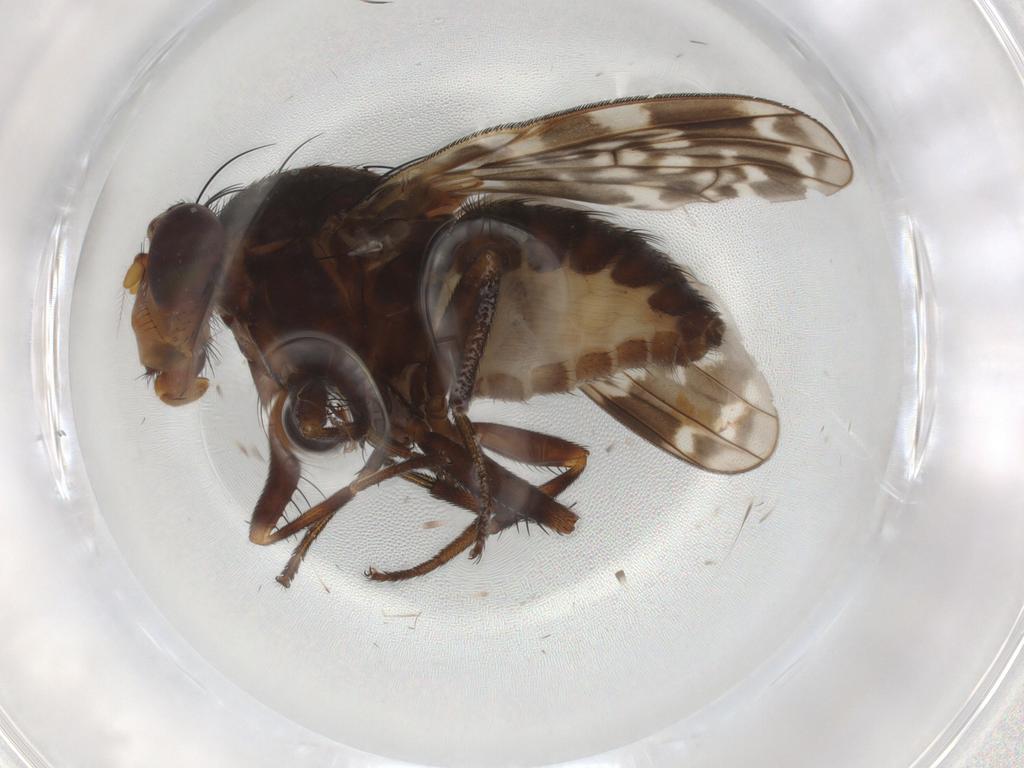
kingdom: Animalia
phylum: Arthropoda
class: Insecta
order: Diptera
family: Phoridae
